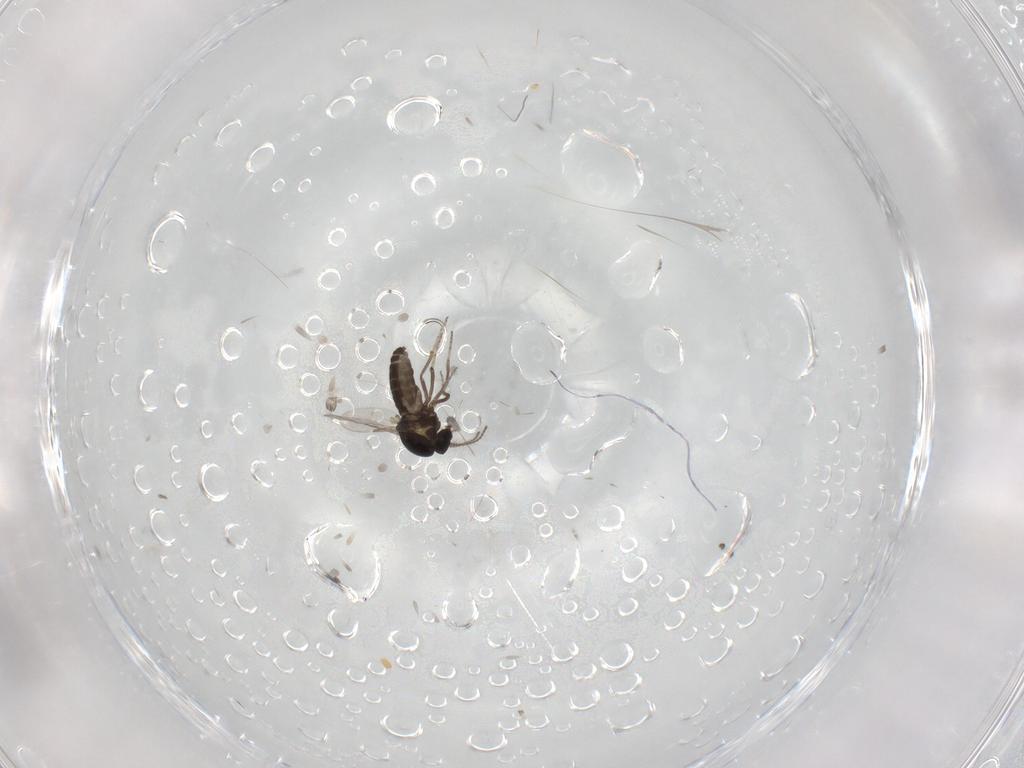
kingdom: Animalia
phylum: Arthropoda
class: Insecta
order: Diptera
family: Ceratopogonidae
